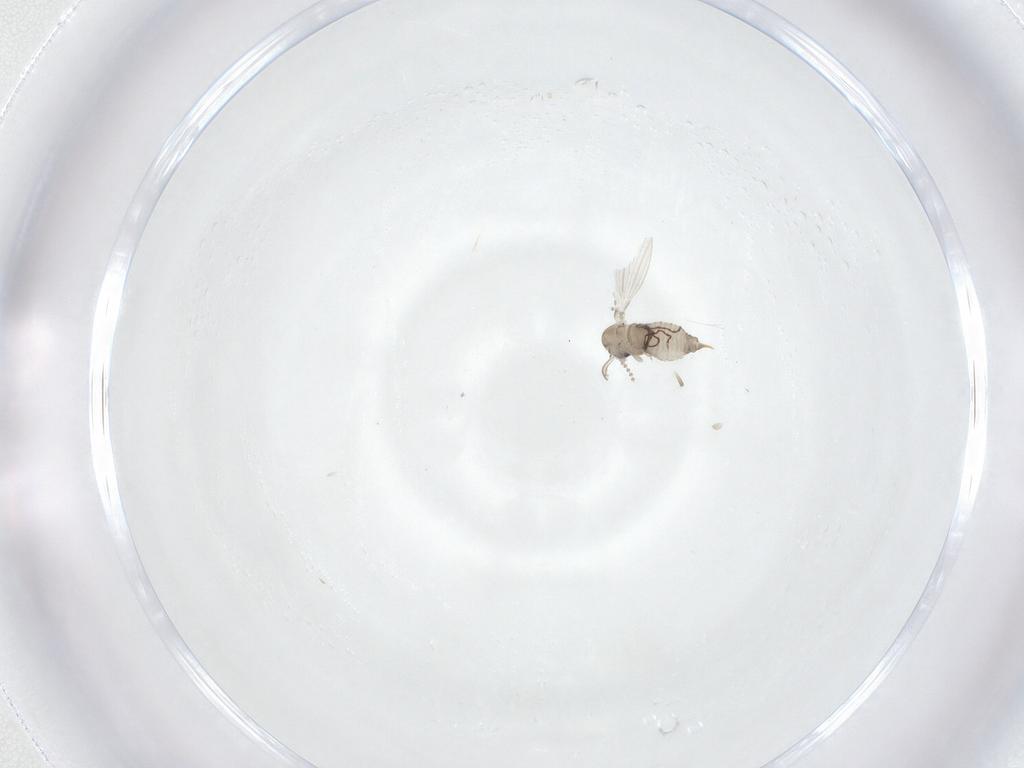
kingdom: Animalia
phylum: Arthropoda
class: Insecta
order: Diptera
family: Psychodidae
